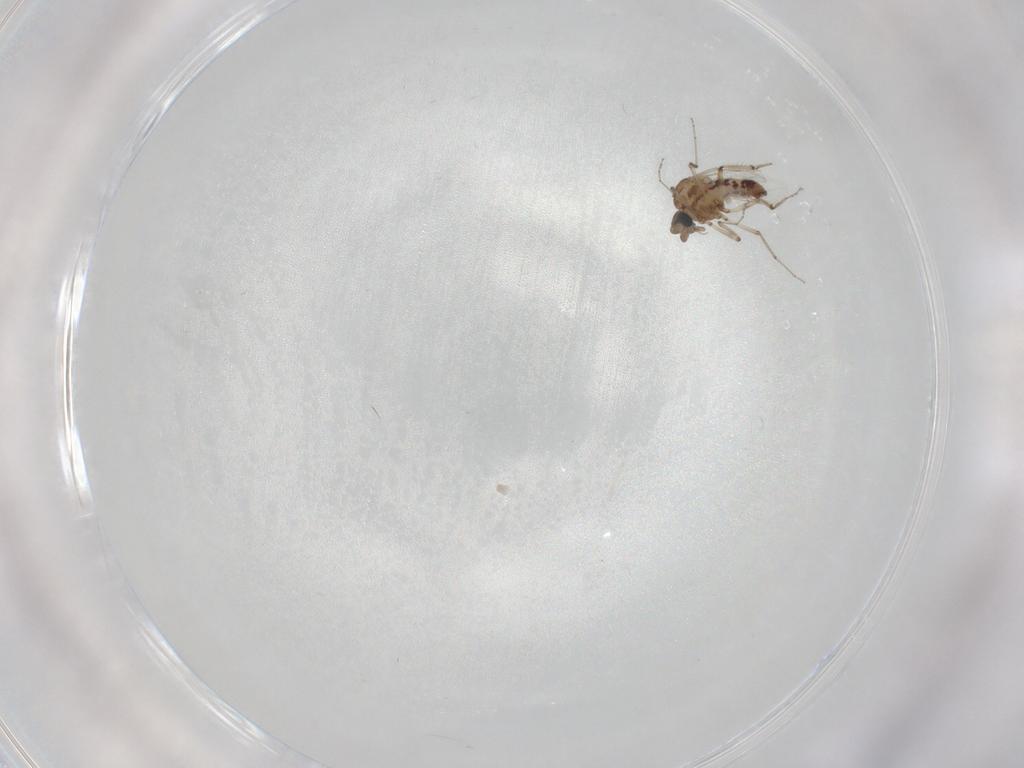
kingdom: Animalia
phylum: Arthropoda
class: Insecta
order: Diptera
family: Ceratopogonidae
